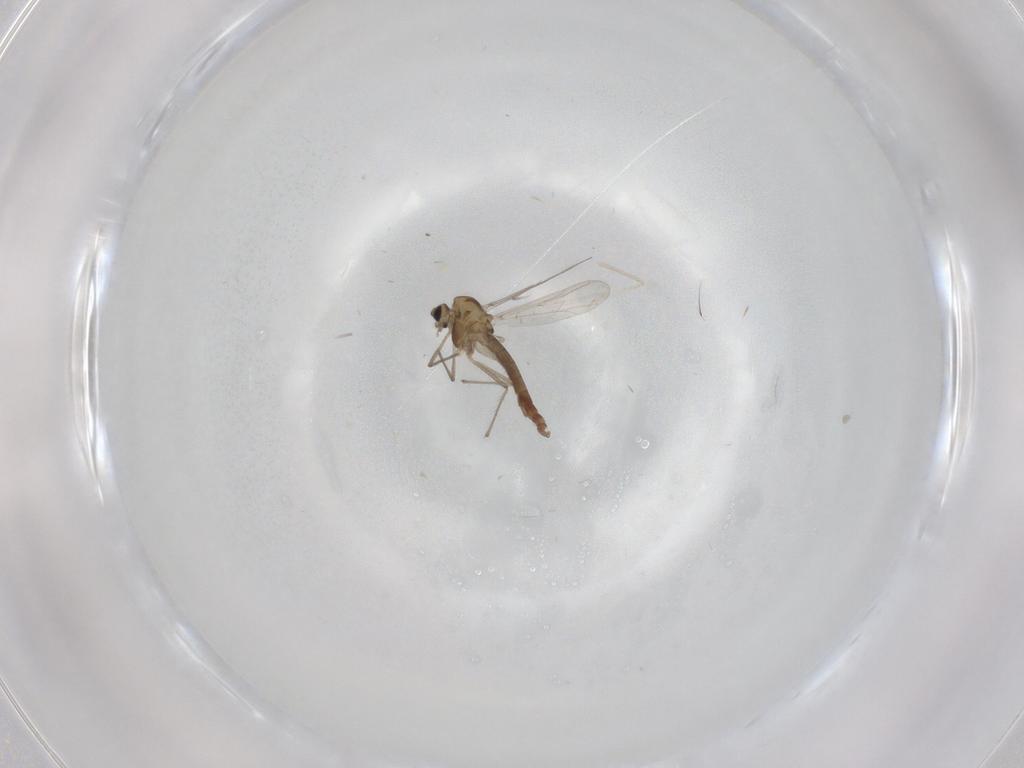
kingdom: Animalia
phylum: Arthropoda
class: Insecta
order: Diptera
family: Chironomidae
